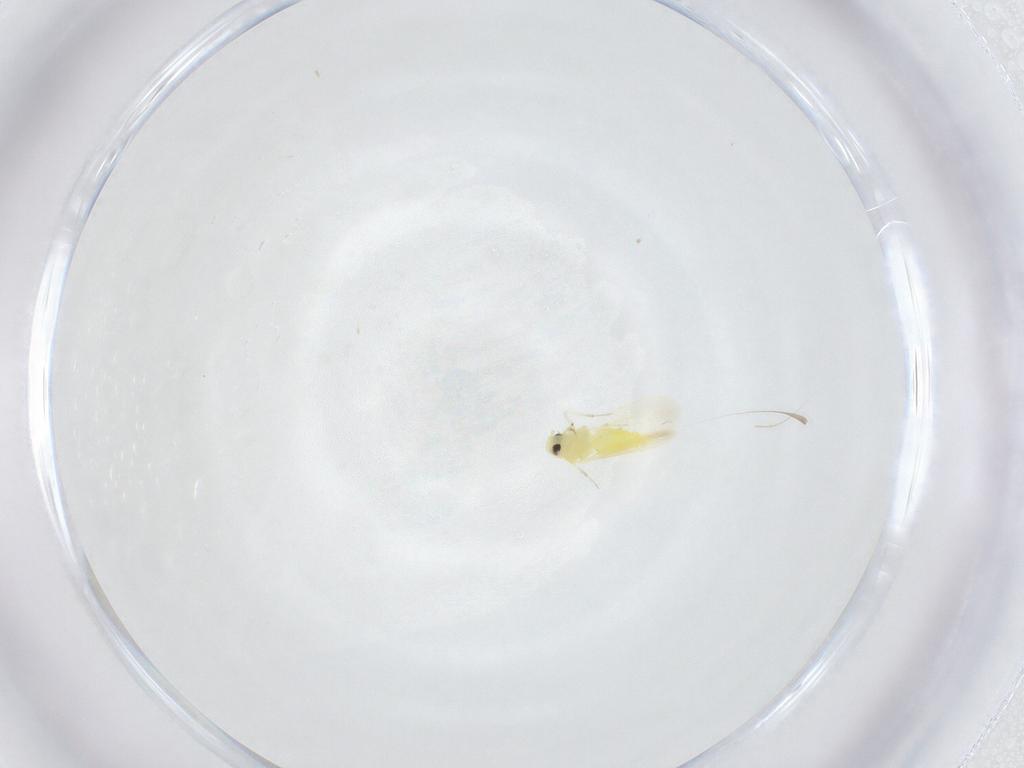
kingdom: Animalia
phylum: Arthropoda
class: Insecta
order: Hemiptera
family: Aleyrodidae
